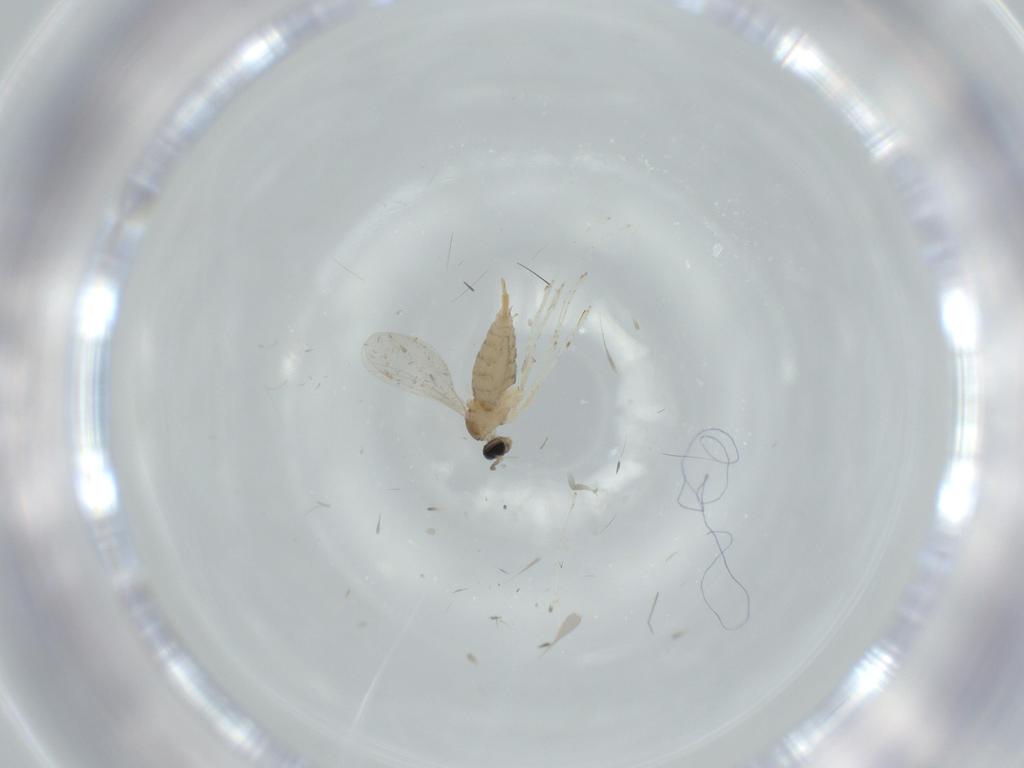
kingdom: Animalia
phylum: Arthropoda
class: Insecta
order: Diptera
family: Cecidomyiidae
